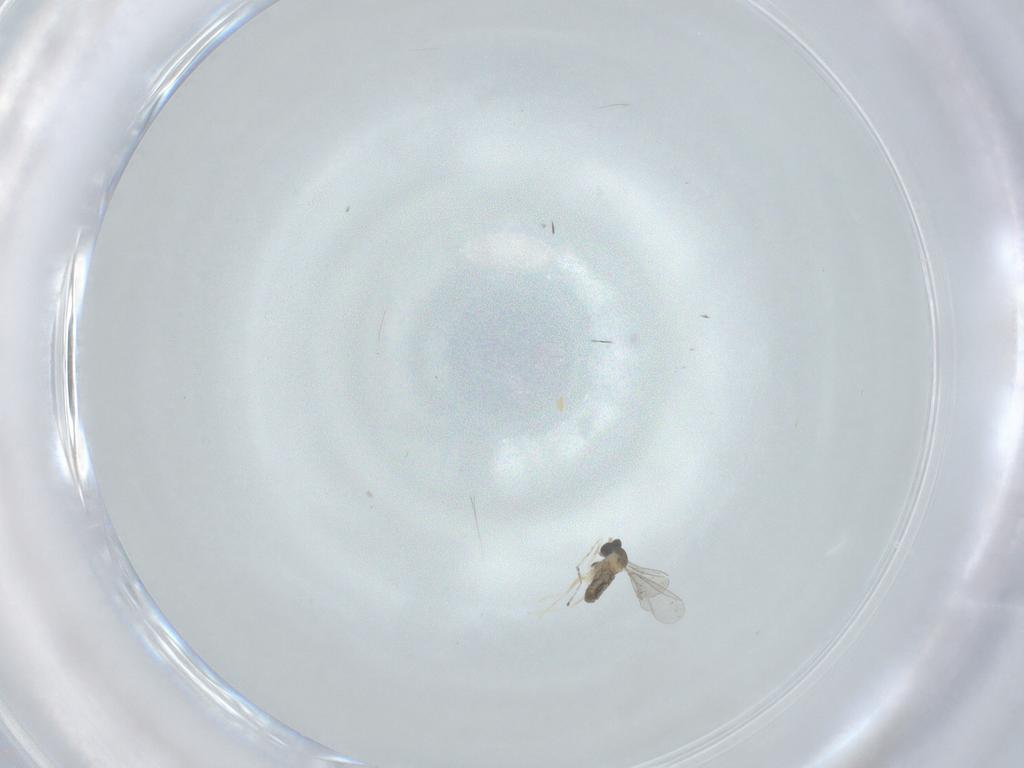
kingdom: Animalia
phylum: Arthropoda
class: Insecta
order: Diptera
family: Cecidomyiidae
